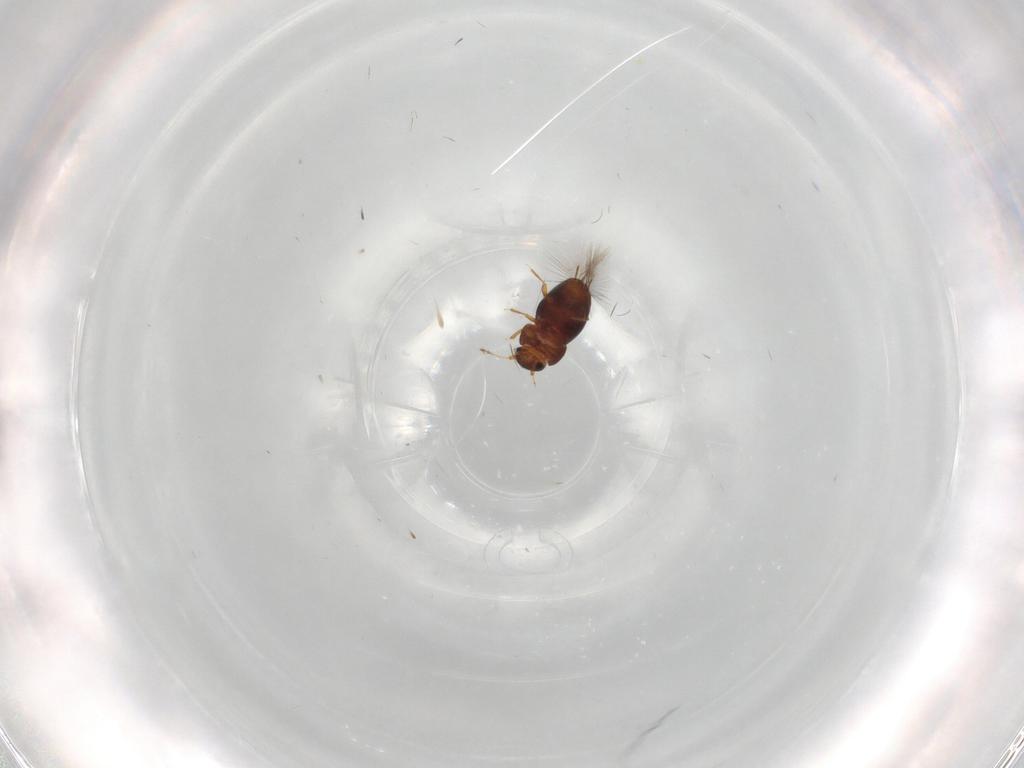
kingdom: Animalia
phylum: Arthropoda
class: Insecta
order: Coleoptera
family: Ptiliidae
